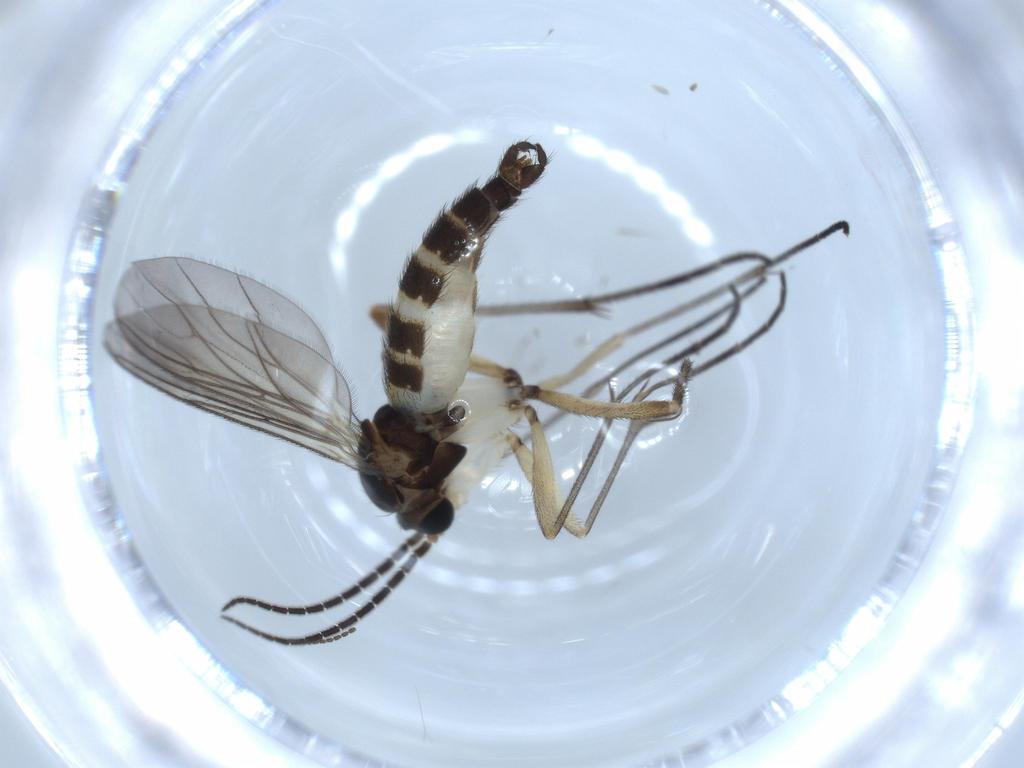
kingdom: Animalia
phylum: Arthropoda
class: Insecta
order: Diptera
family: Sciaridae
